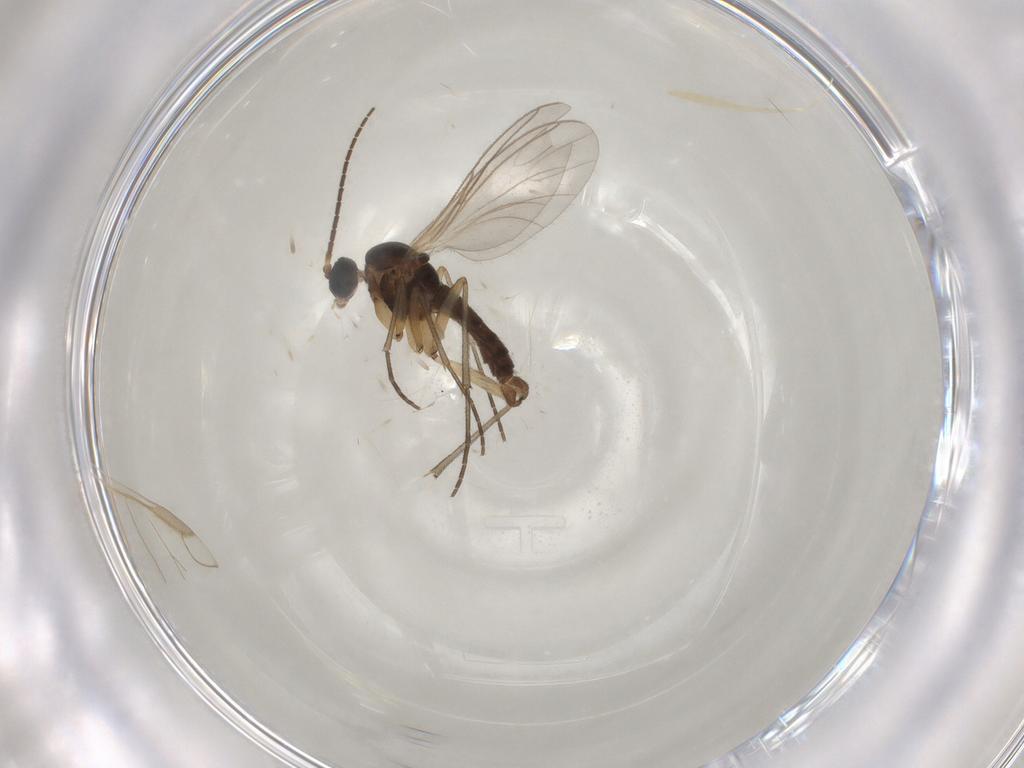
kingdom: Animalia
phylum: Arthropoda
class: Insecta
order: Diptera
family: Sciaridae
